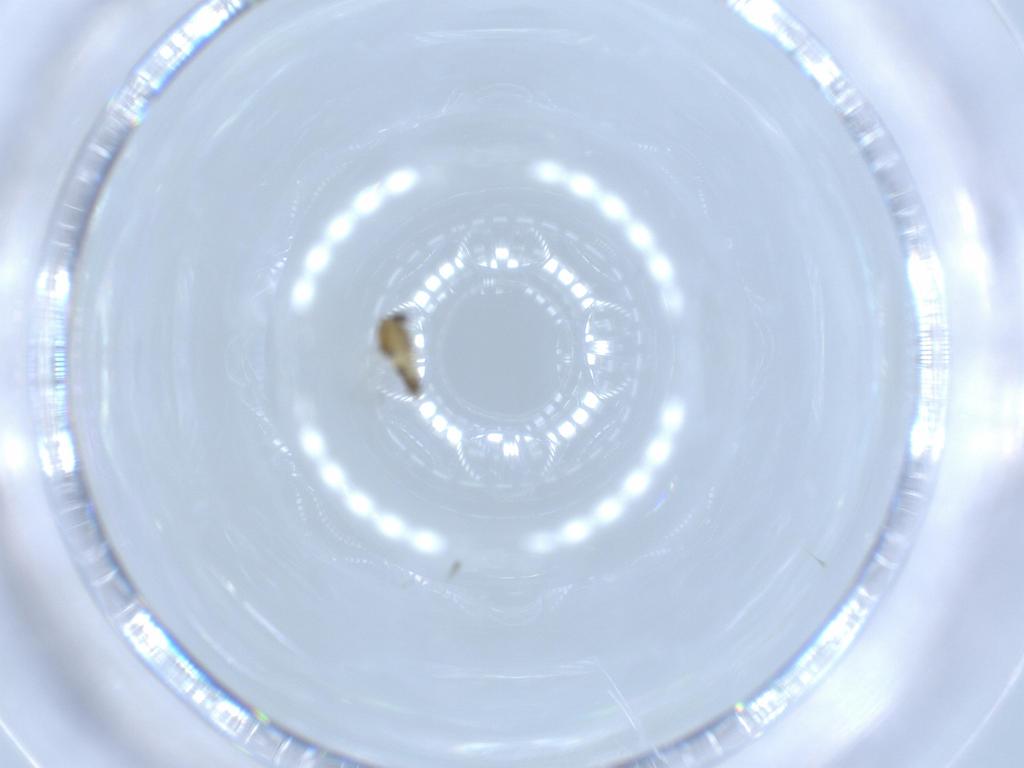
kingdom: Animalia
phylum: Arthropoda
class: Insecta
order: Diptera
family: Chironomidae
